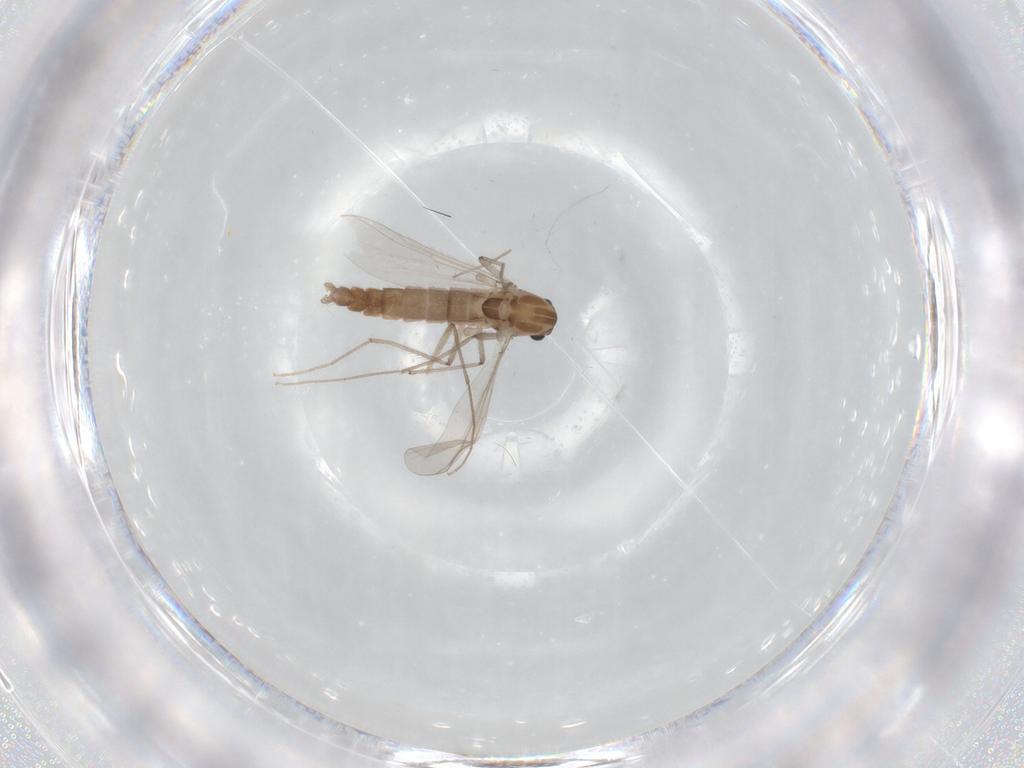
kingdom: Animalia
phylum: Arthropoda
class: Insecta
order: Diptera
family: Chironomidae
